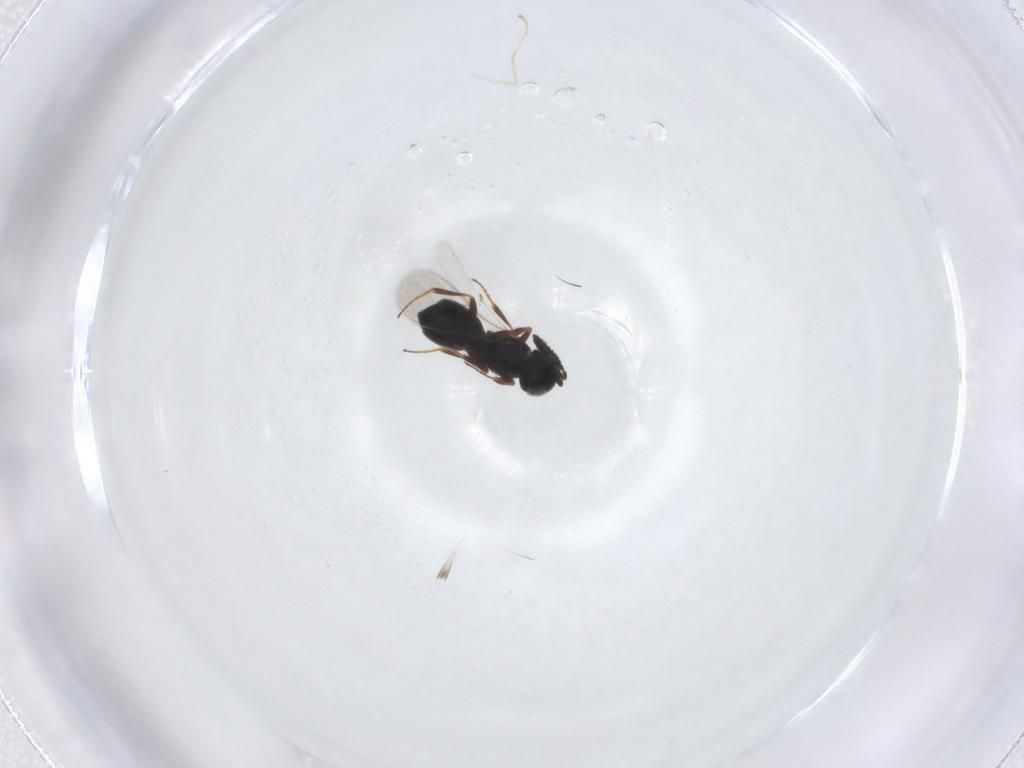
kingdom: Animalia
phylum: Arthropoda
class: Insecta
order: Hymenoptera
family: Scelionidae
